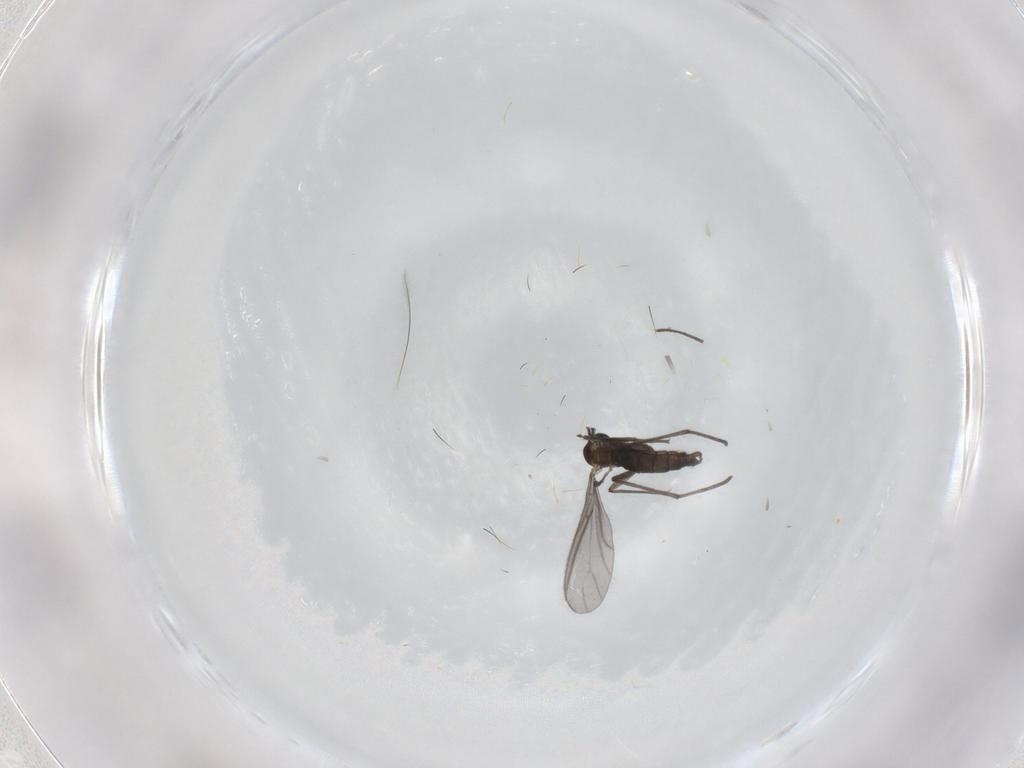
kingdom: Animalia
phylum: Arthropoda
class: Insecta
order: Diptera
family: Sciaridae
